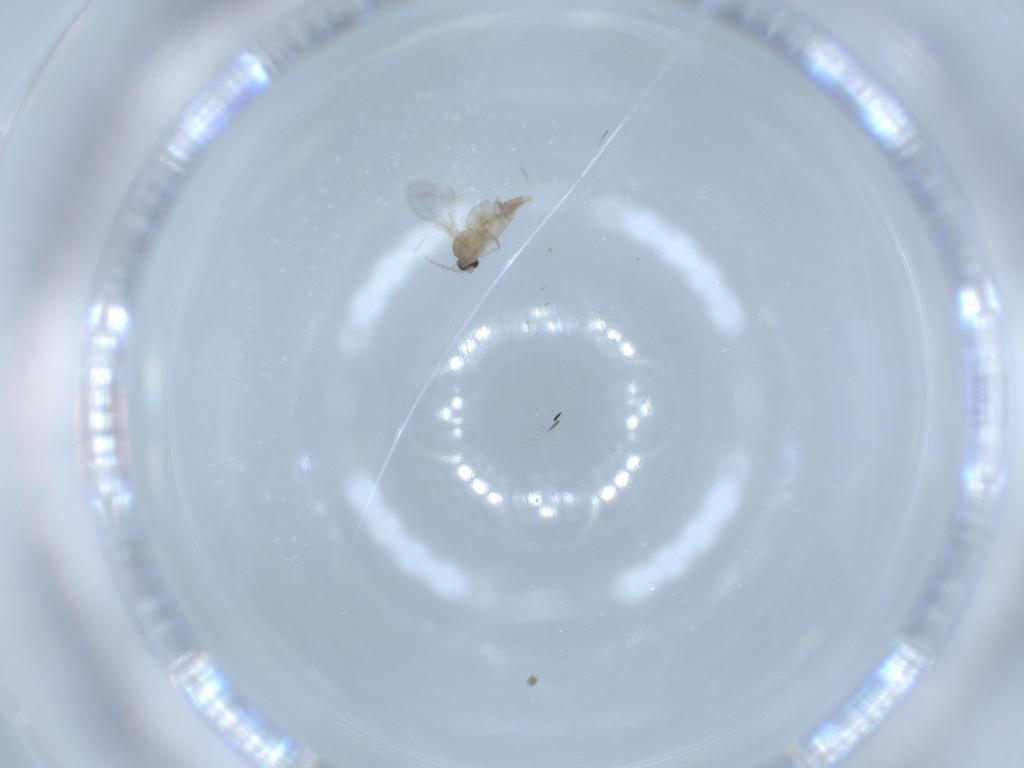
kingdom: Animalia
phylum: Arthropoda
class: Insecta
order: Diptera
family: Cecidomyiidae
